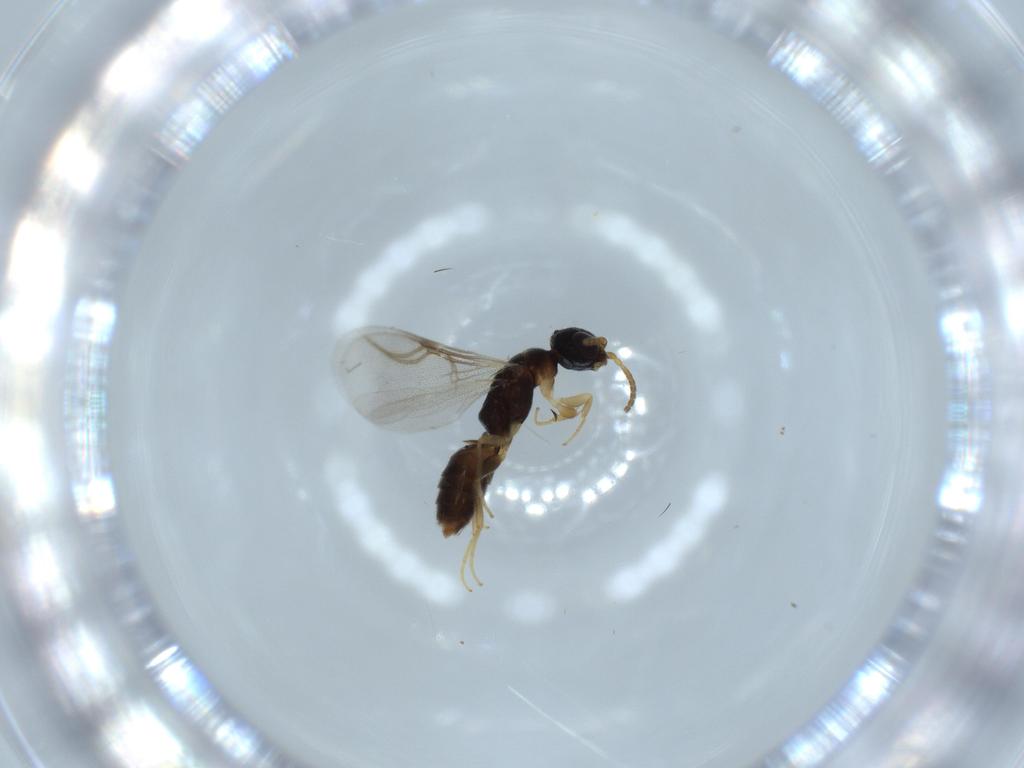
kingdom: Animalia
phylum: Arthropoda
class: Insecta
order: Hymenoptera
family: Bethylidae
